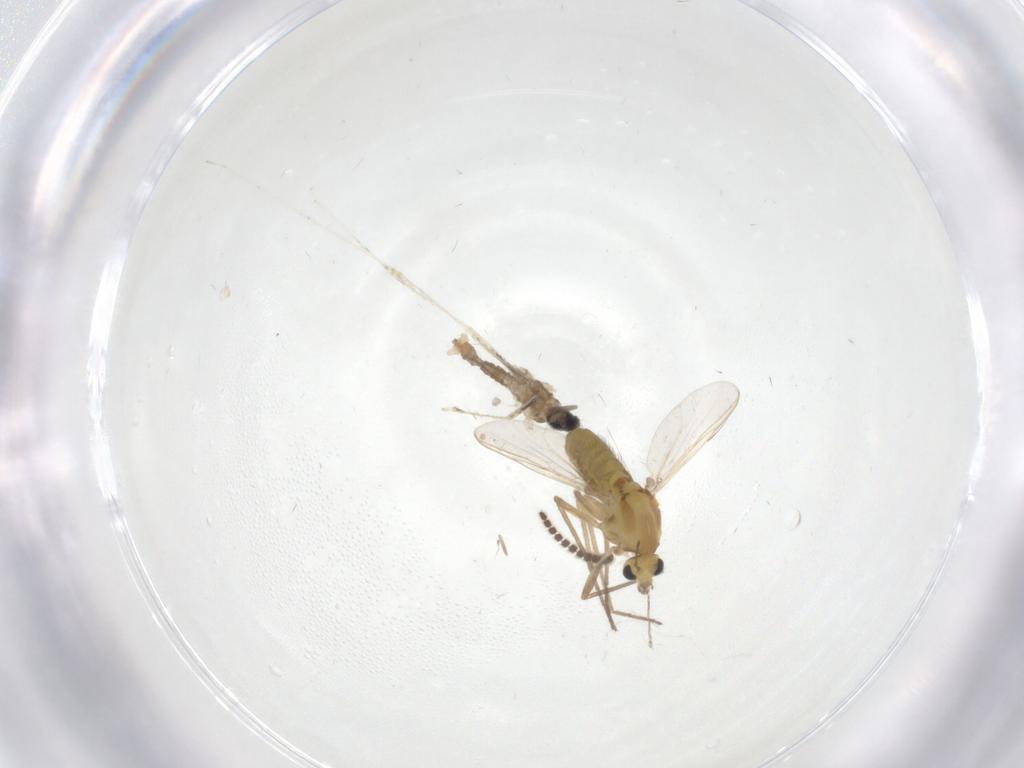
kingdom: Animalia
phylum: Arthropoda
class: Insecta
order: Diptera
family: Chironomidae
